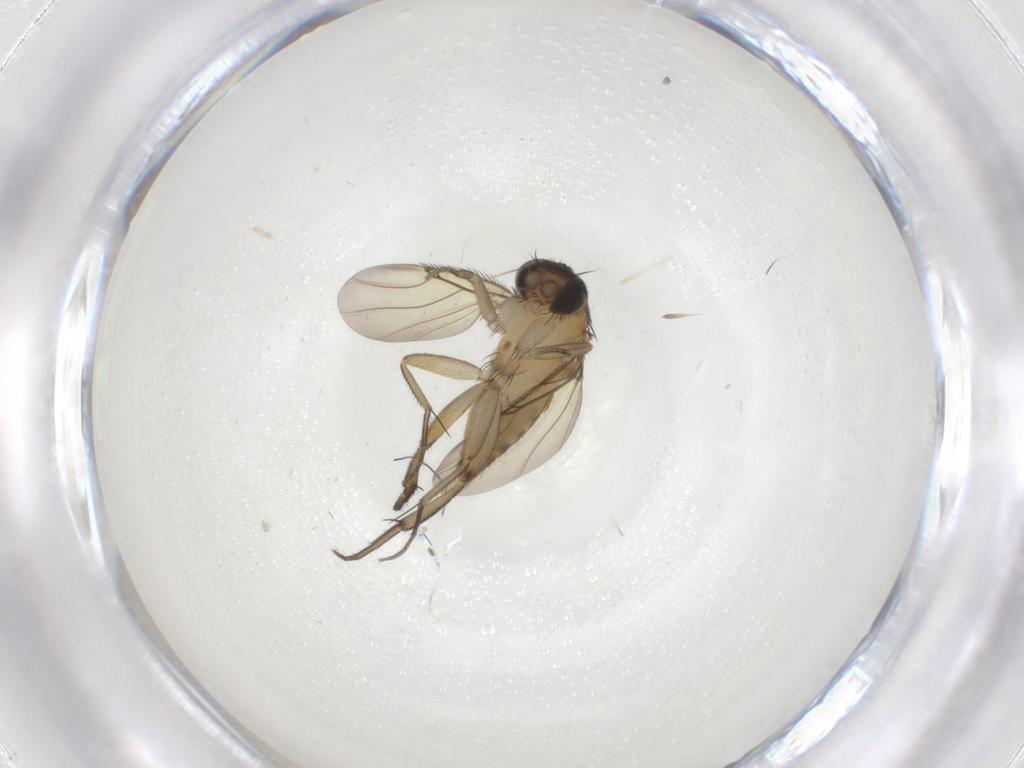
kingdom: Animalia
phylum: Arthropoda
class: Insecta
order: Diptera
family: Phoridae
